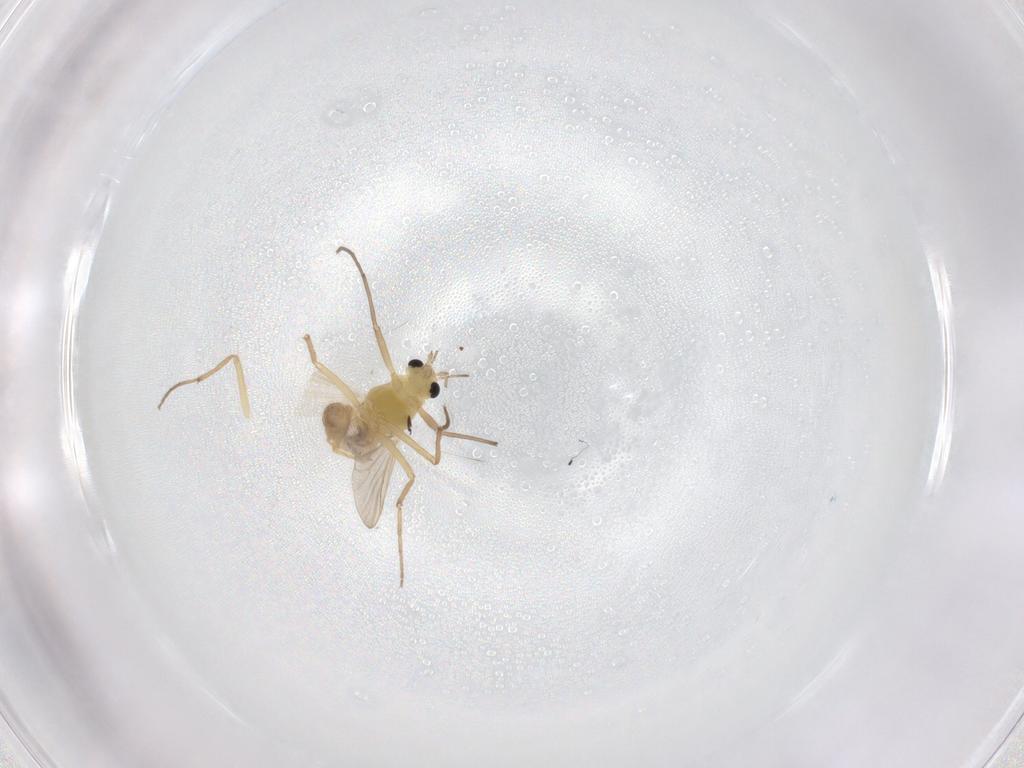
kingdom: Animalia
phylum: Arthropoda
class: Insecta
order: Diptera
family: Chironomidae
